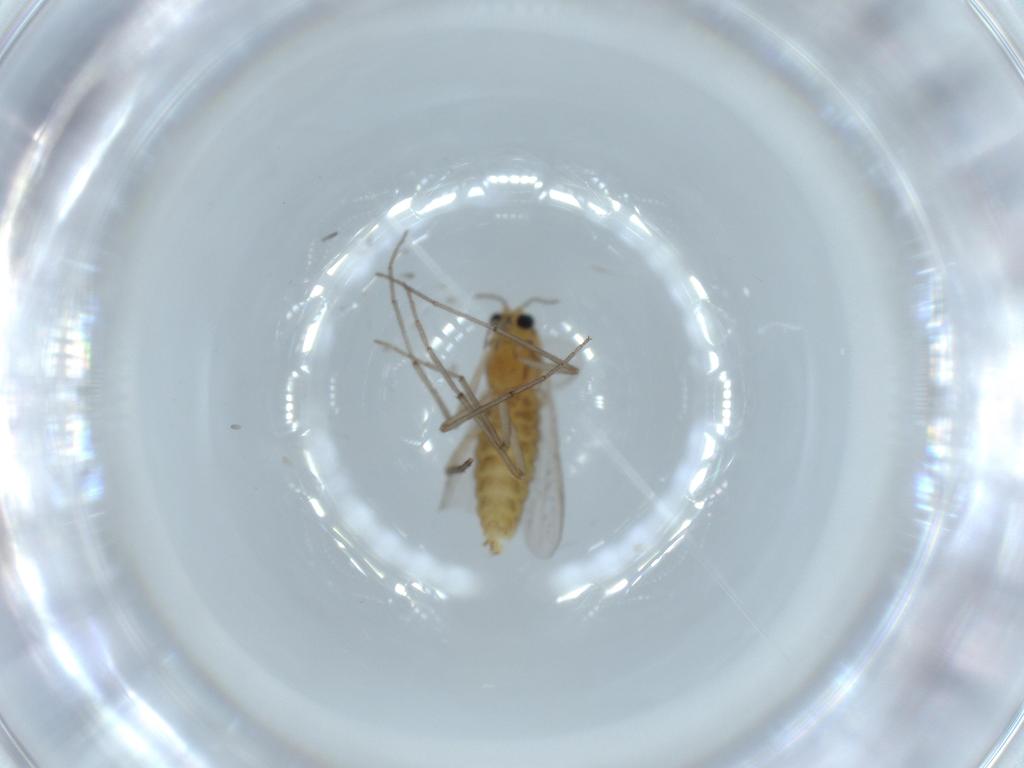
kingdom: Animalia
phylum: Arthropoda
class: Insecta
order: Diptera
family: Chironomidae
